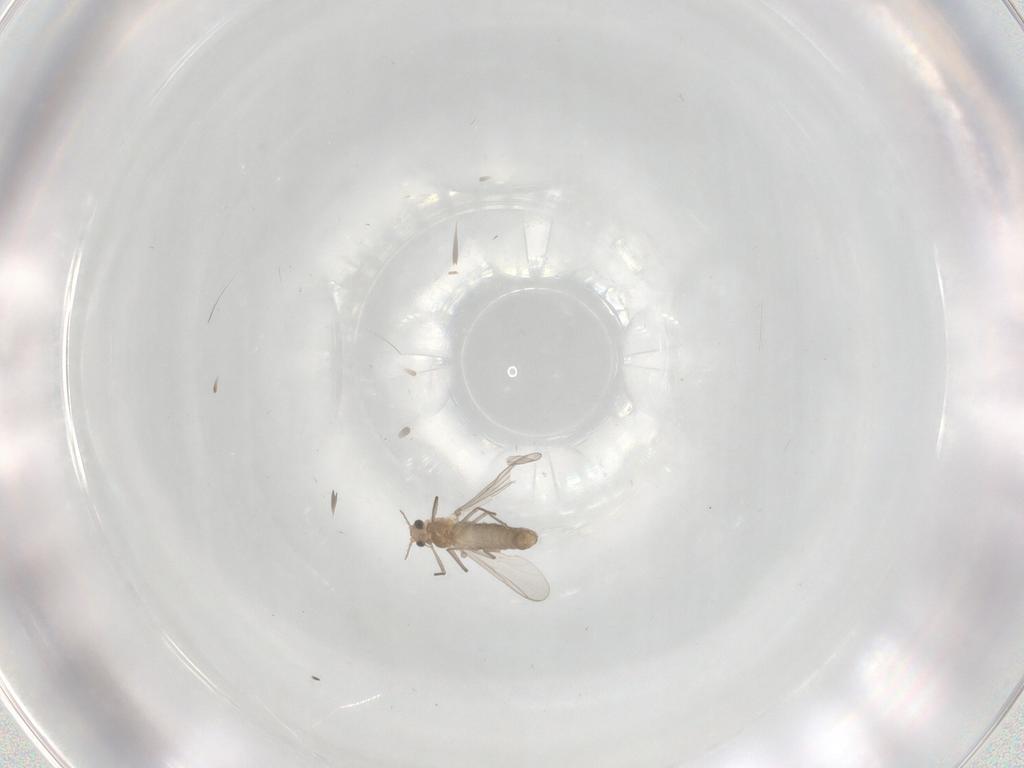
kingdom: Animalia
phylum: Arthropoda
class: Insecta
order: Diptera
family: Chironomidae
